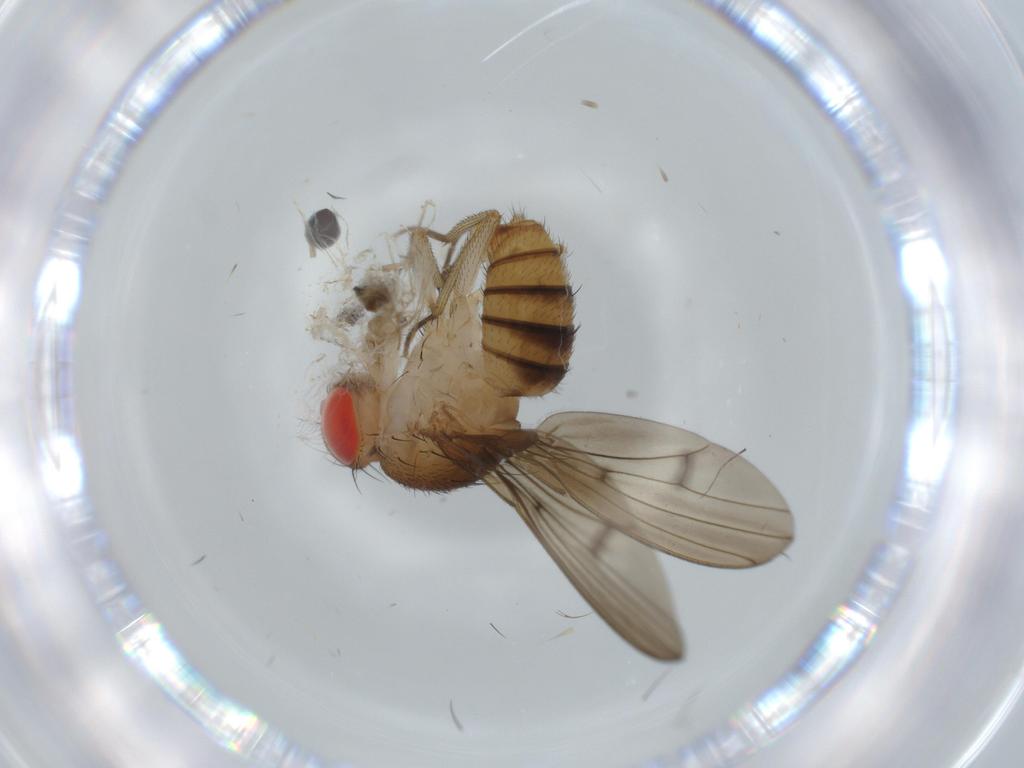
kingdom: Animalia
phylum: Arthropoda
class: Insecta
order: Diptera
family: Drosophilidae
